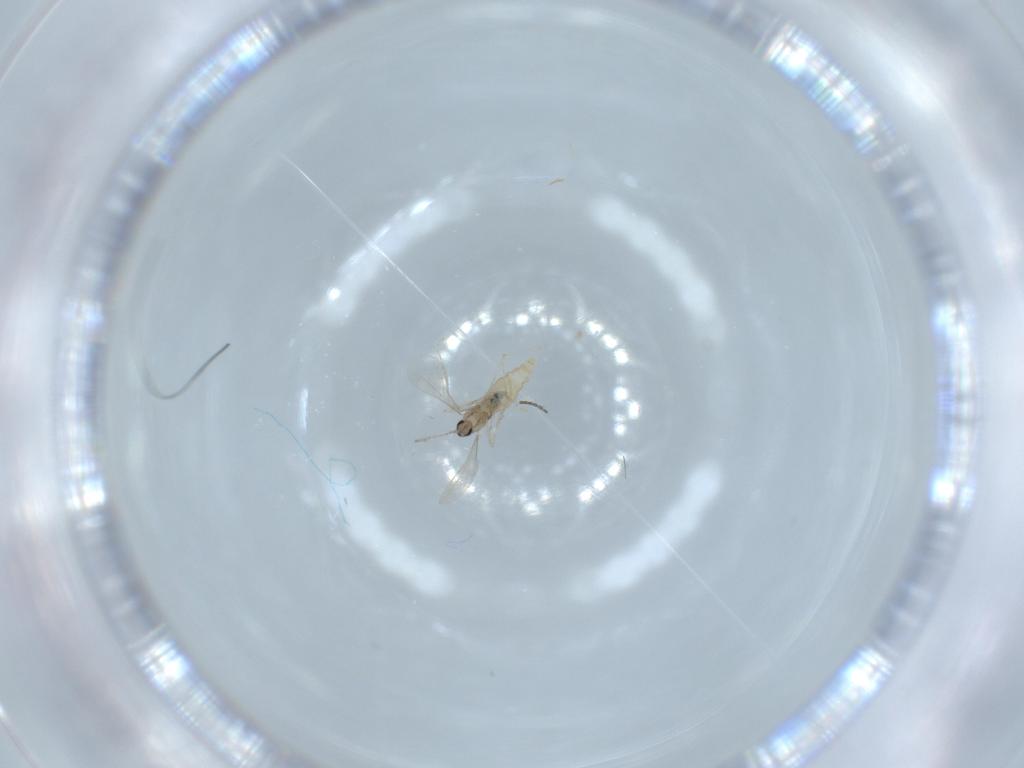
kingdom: Animalia
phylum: Arthropoda
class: Insecta
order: Diptera
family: Cecidomyiidae
